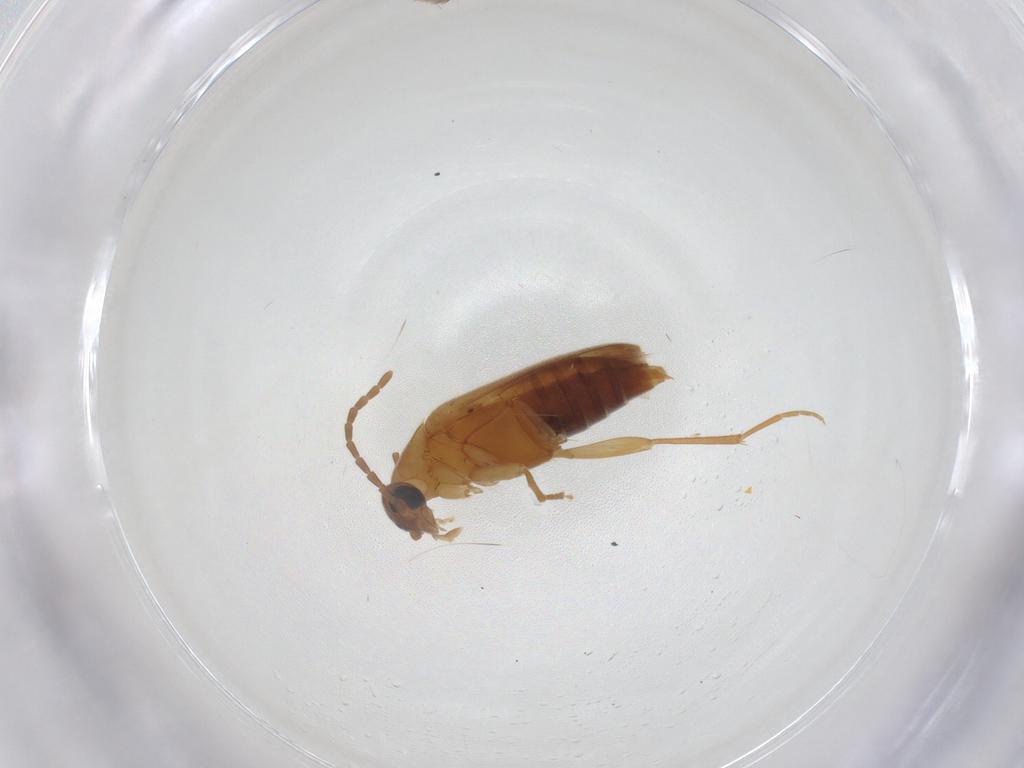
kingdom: Animalia
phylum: Arthropoda
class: Insecta
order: Coleoptera
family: Scraptiidae
